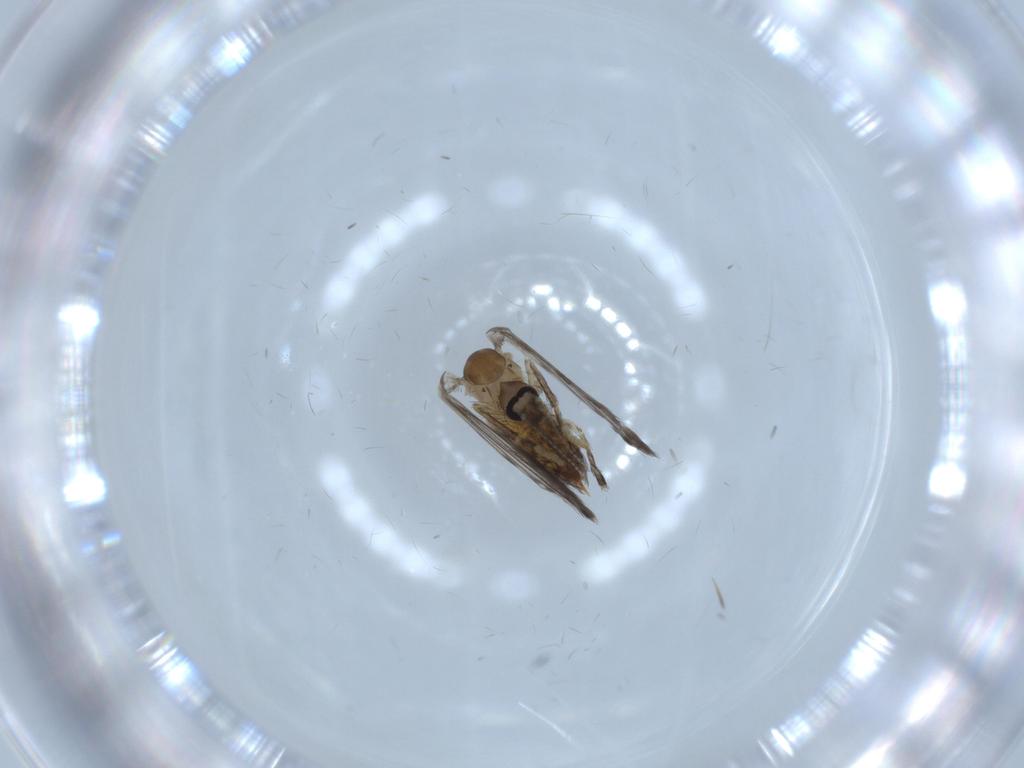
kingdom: Animalia
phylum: Arthropoda
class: Insecta
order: Diptera
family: Psychodidae
